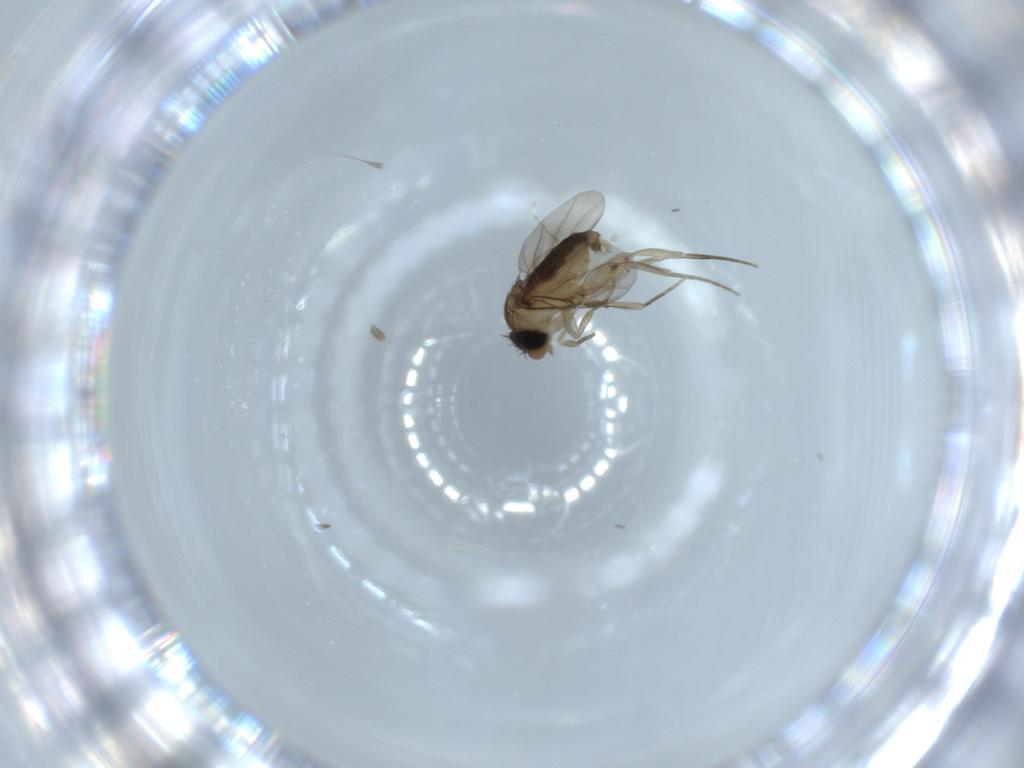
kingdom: Animalia
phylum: Arthropoda
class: Insecta
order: Diptera
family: Phoridae
